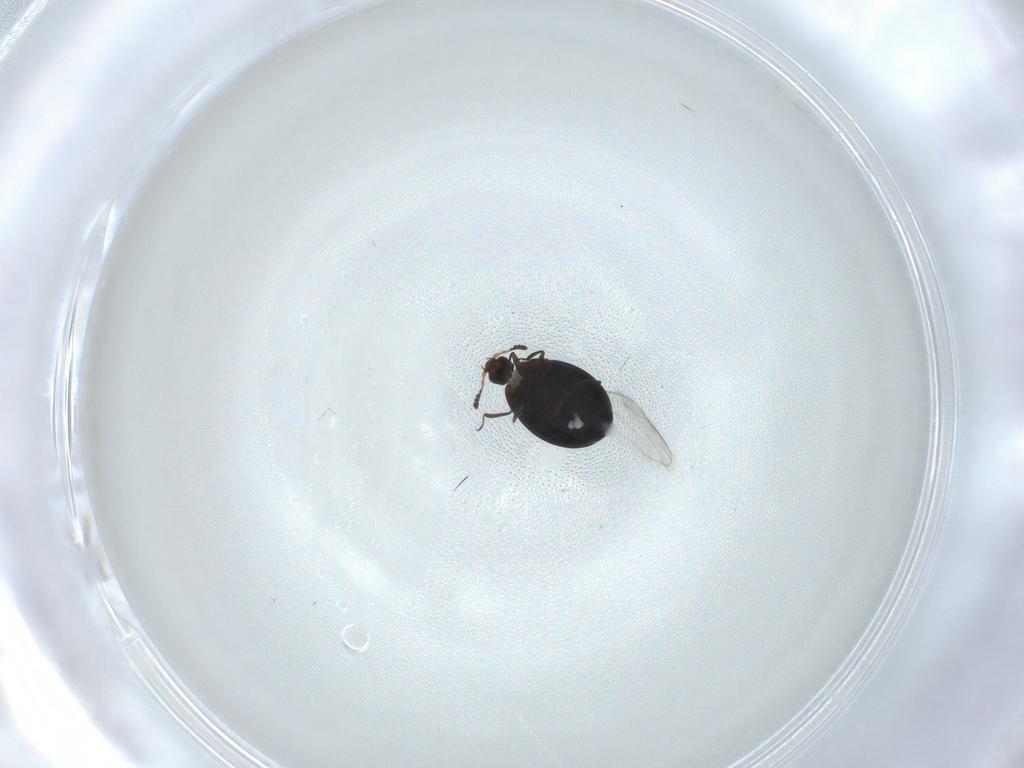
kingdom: Animalia
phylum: Arthropoda
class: Insecta
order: Coleoptera
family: Corylophidae
